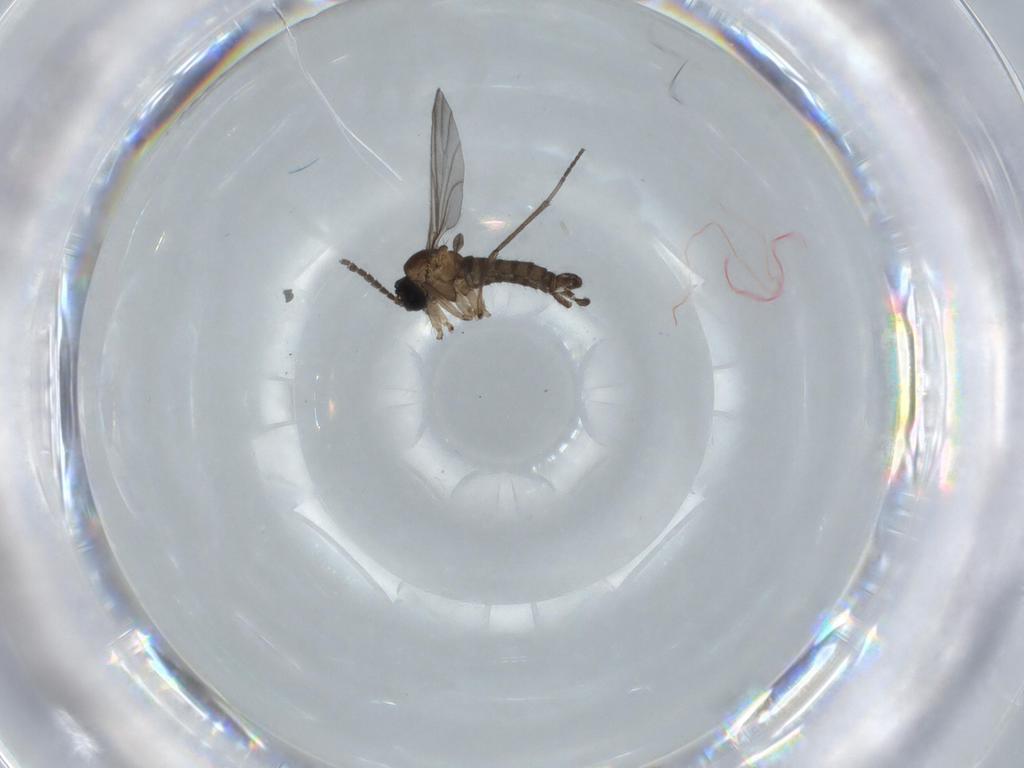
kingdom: Animalia
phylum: Arthropoda
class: Insecta
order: Diptera
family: Sciaridae
